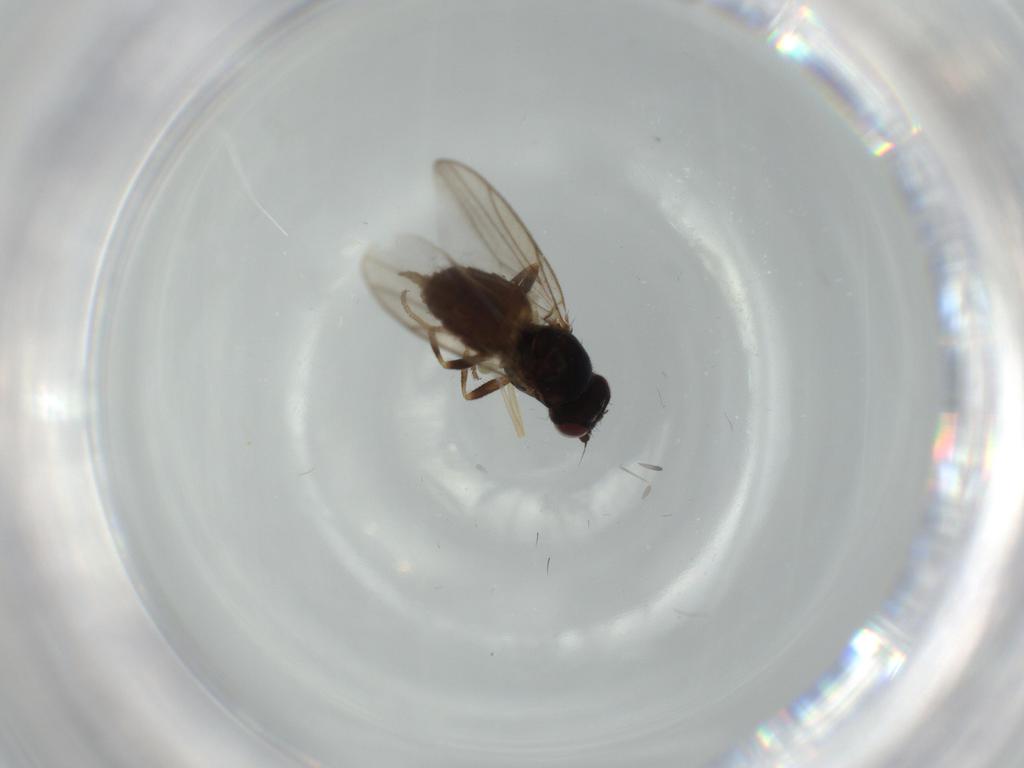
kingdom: Animalia
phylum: Arthropoda
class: Insecta
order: Diptera
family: Chloropidae
